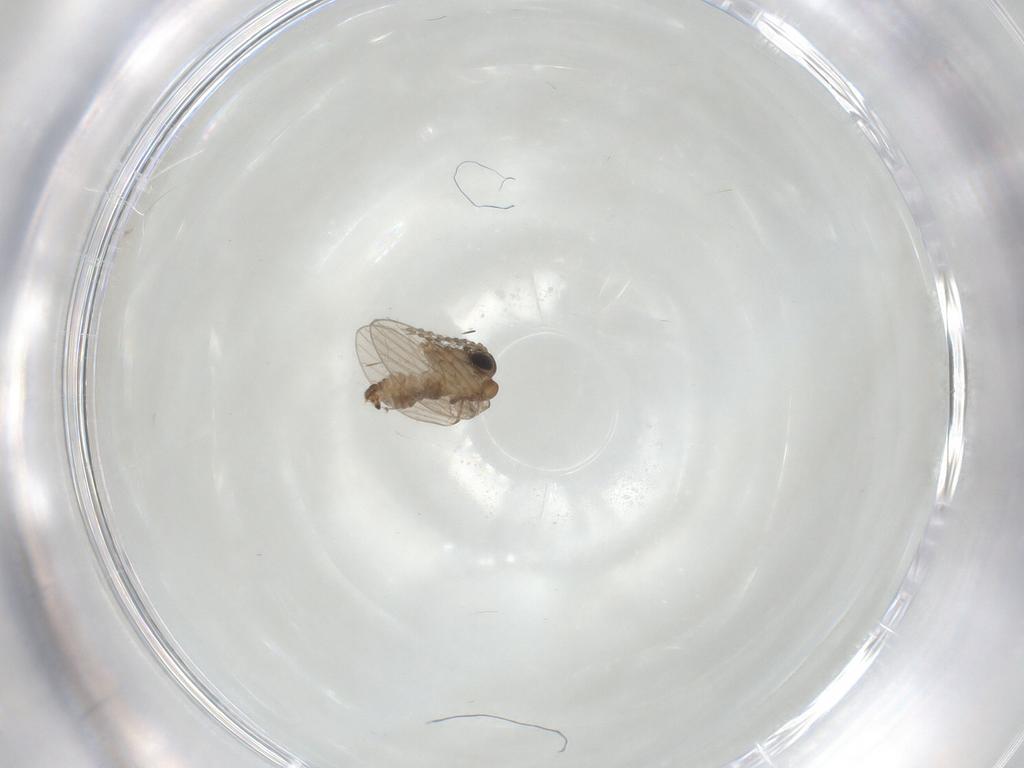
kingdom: Animalia
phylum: Arthropoda
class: Insecta
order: Diptera
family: Psychodidae
